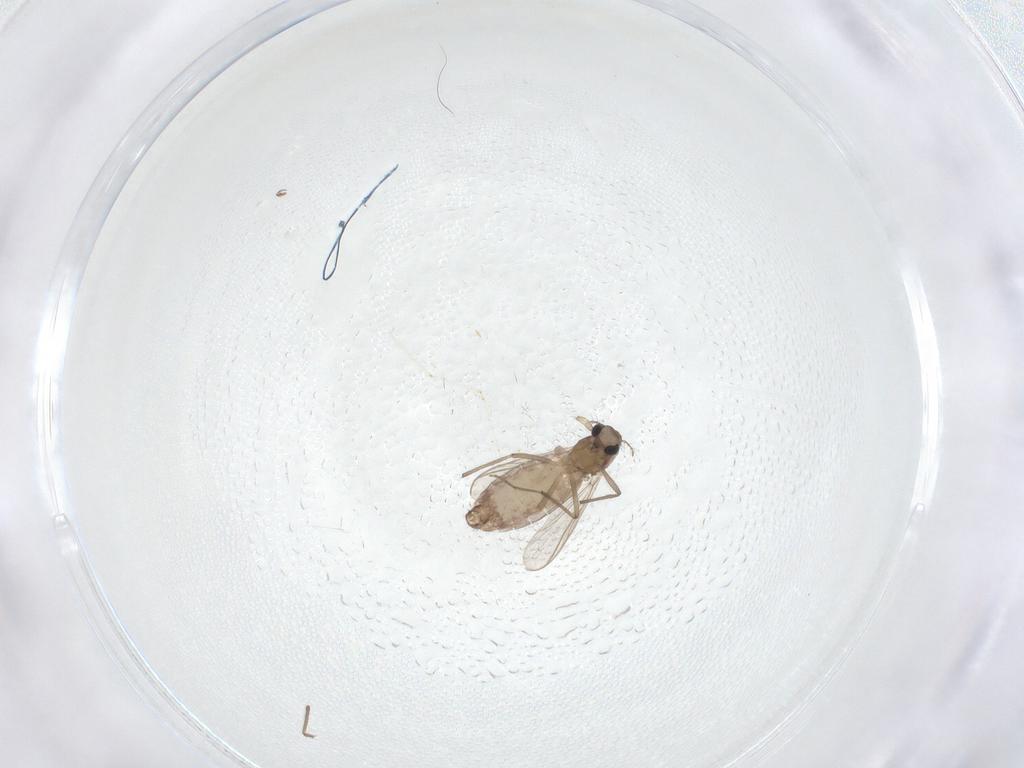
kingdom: Animalia
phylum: Arthropoda
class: Insecta
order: Diptera
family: Chironomidae
